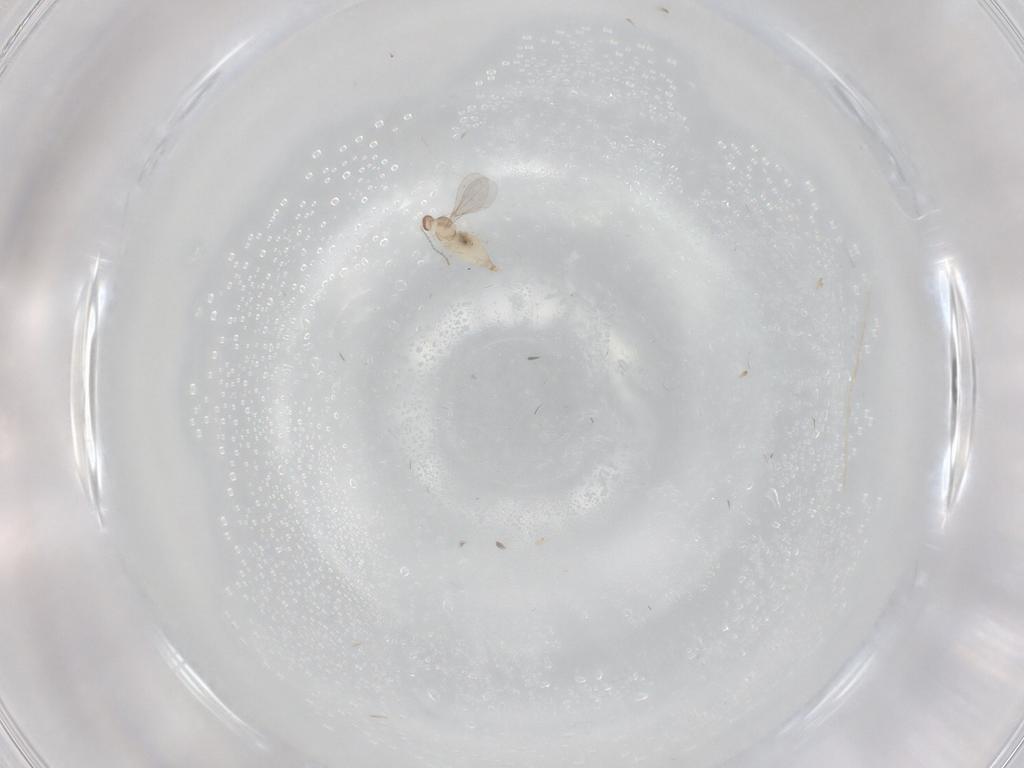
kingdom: Animalia
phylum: Arthropoda
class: Insecta
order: Diptera
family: Cecidomyiidae
